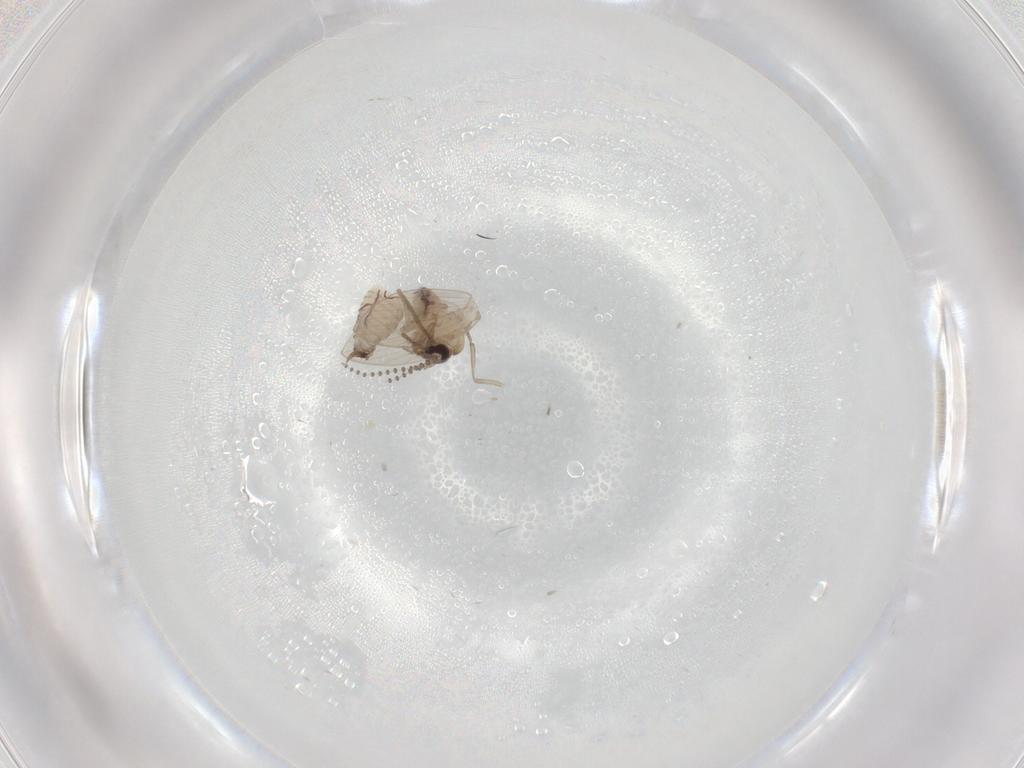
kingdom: Animalia
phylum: Arthropoda
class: Insecta
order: Diptera
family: Psychodidae
